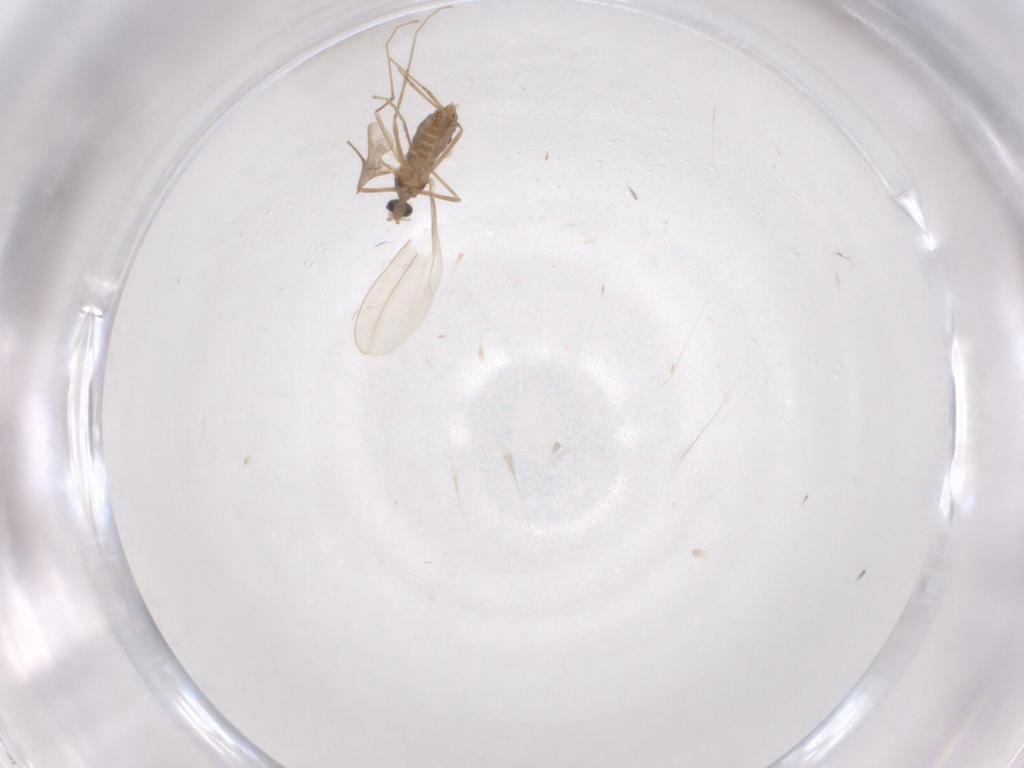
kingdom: Animalia
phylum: Arthropoda
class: Insecta
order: Diptera
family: Cecidomyiidae
